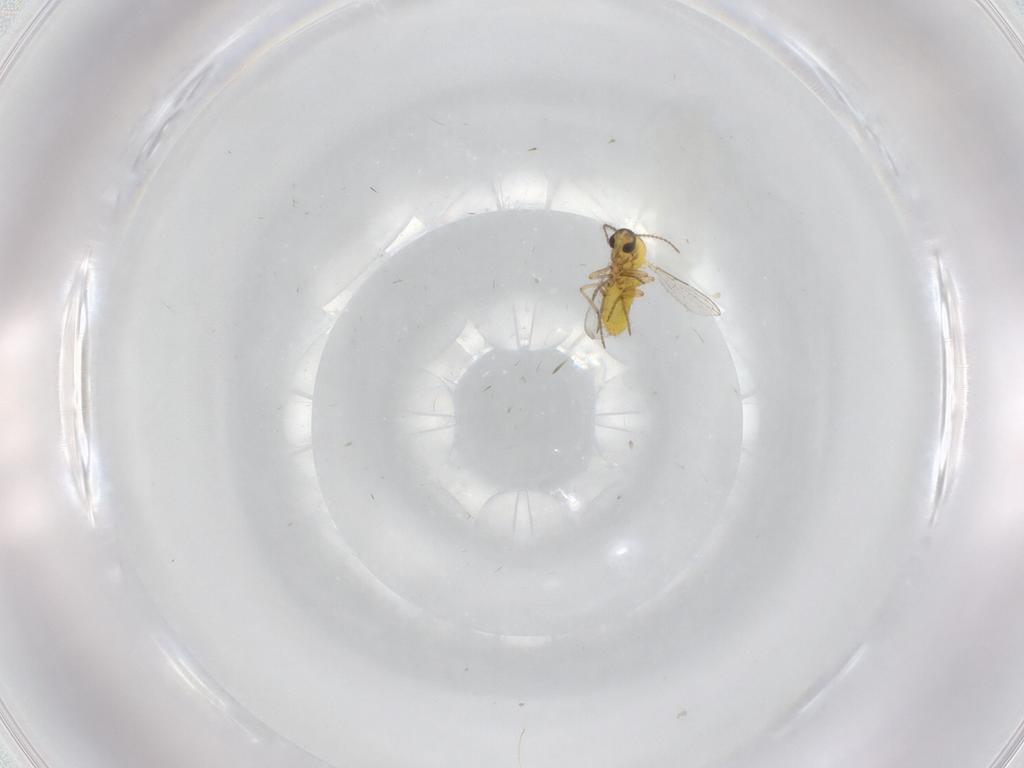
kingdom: Animalia
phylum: Arthropoda
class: Insecta
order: Diptera
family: Ceratopogonidae
